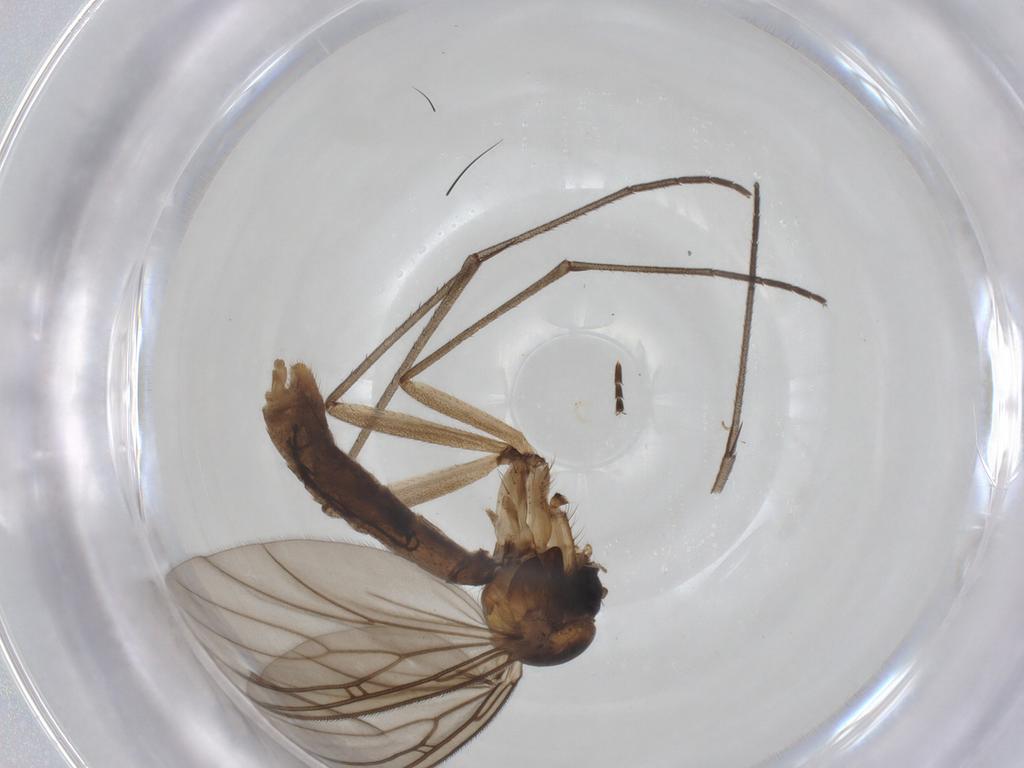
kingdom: Animalia
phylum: Arthropoda
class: Insecta
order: Diptera
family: Mycetophilidae
